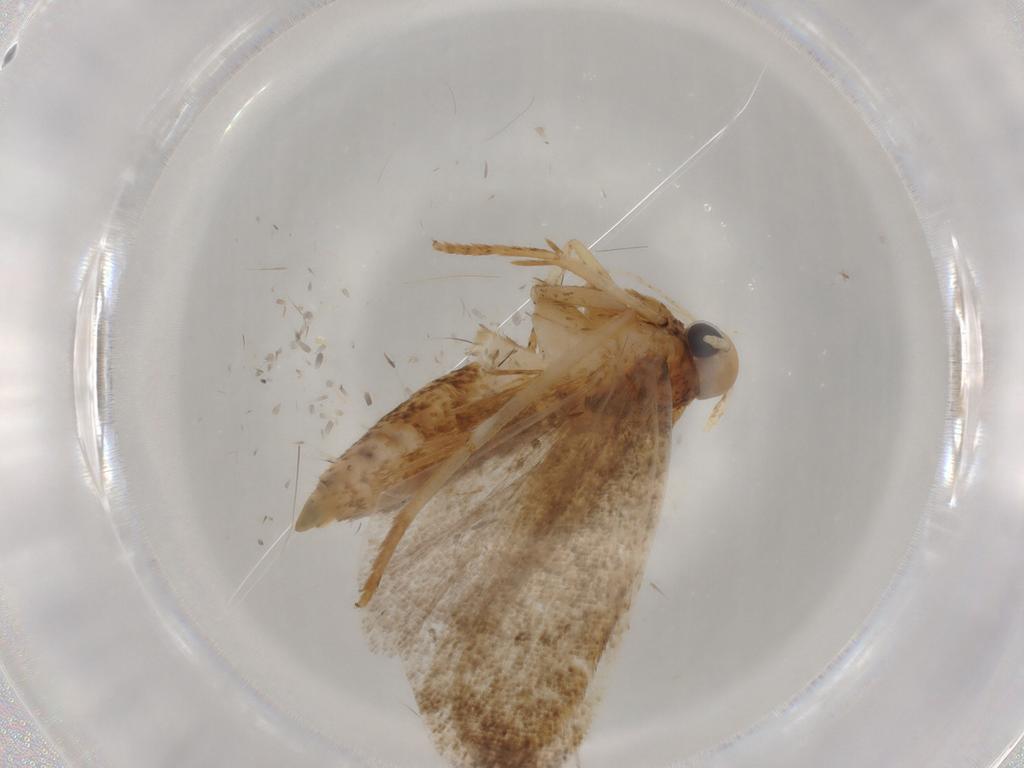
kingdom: Animalia
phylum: Arthropoda
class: Insecta
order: Lepidoptera
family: Autostichidae
